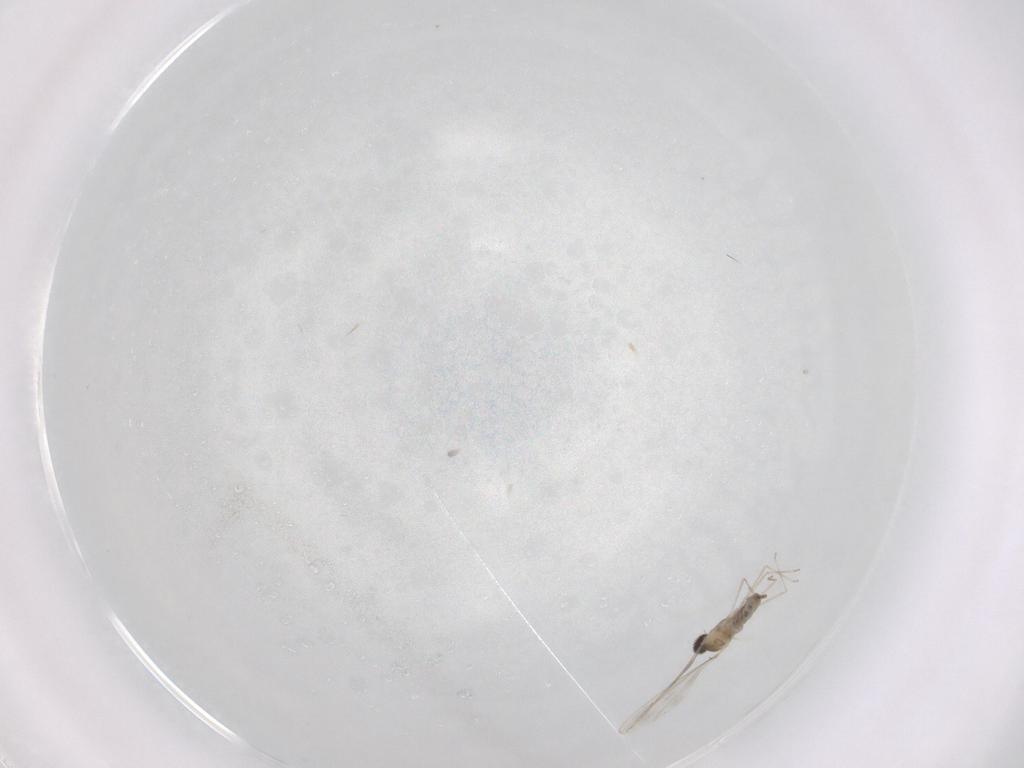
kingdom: Animalia
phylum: Arthropoda
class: Insecta
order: Diptera
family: Cecidomyiidae
